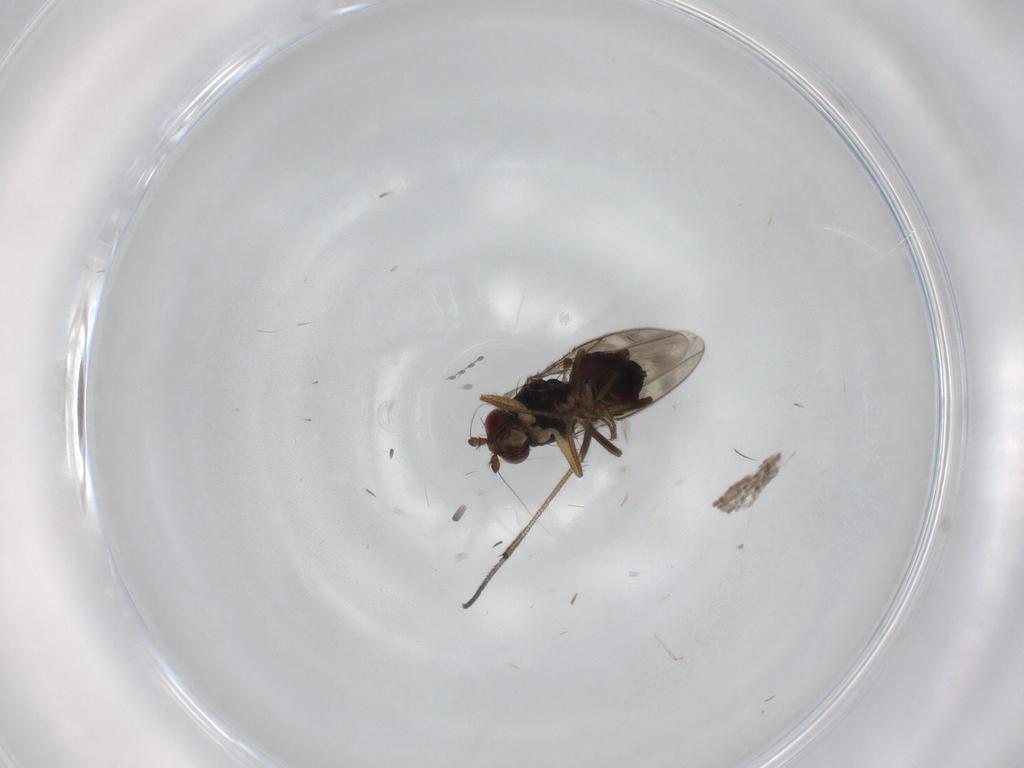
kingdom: Animalia
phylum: Arthropoda
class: Insecta
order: Diptera
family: Sphaeroceridae
